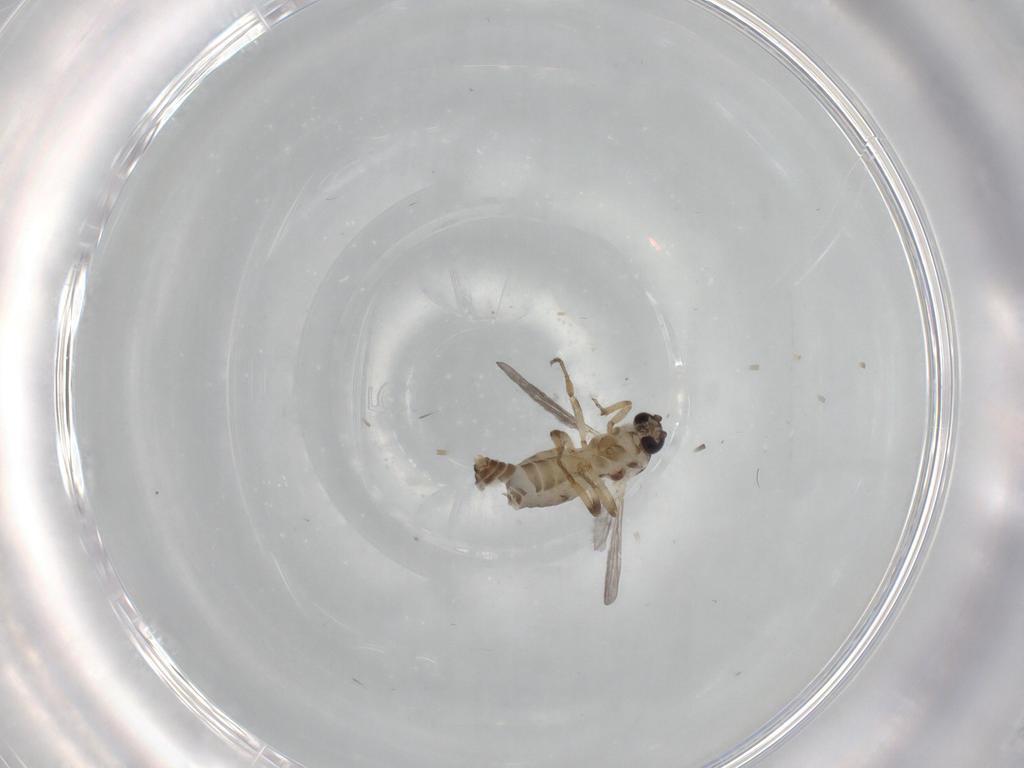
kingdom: Animalia
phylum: Arthropoda
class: Insecta
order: Diptera
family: Ceratopogonidae
